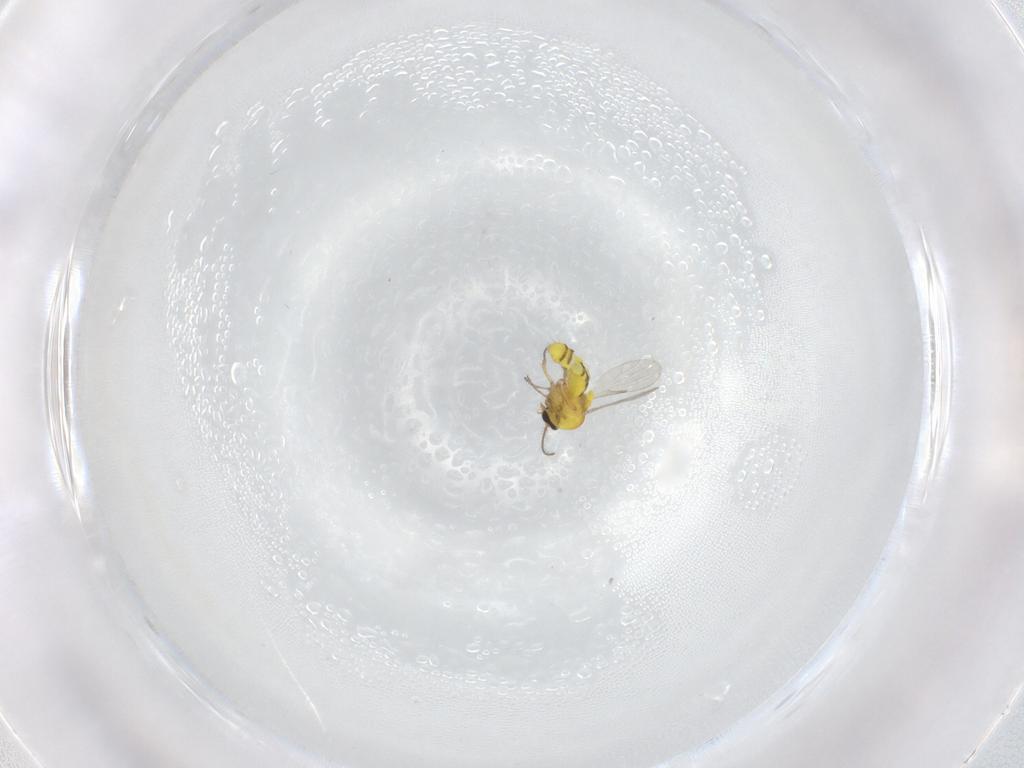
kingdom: Animalia
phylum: Arthropoda
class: Insecta
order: Diptera
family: Ceratopogonidae
